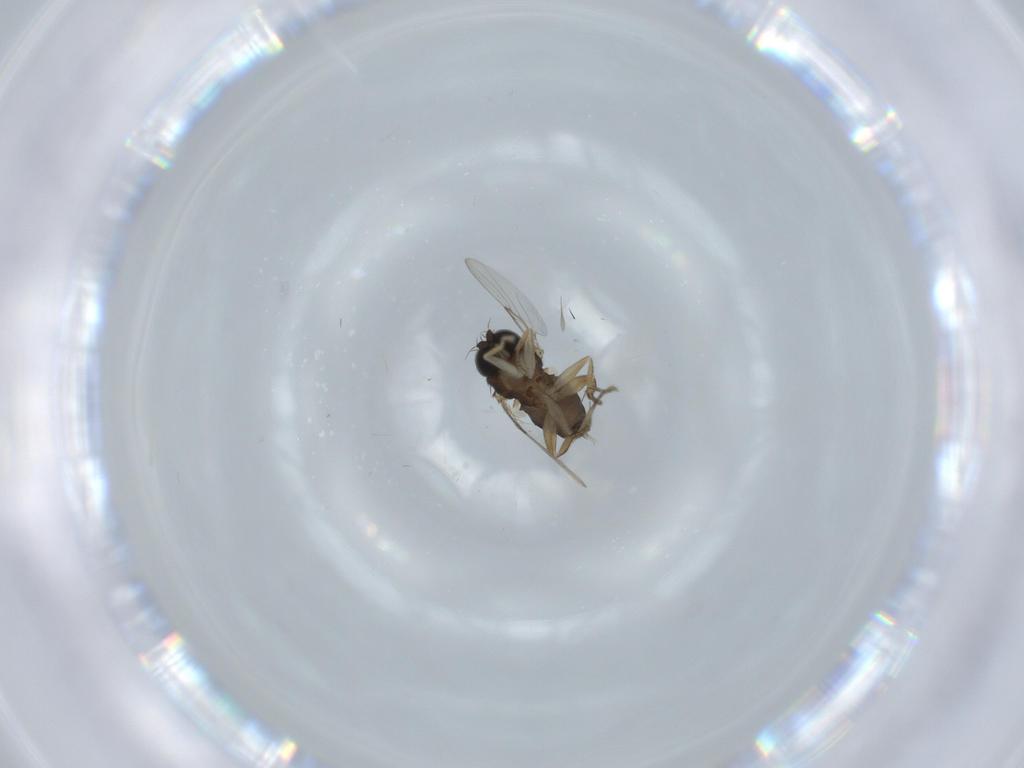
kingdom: Animalia
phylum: Arthropoda
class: Insecta
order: Diptera
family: Phoridae
